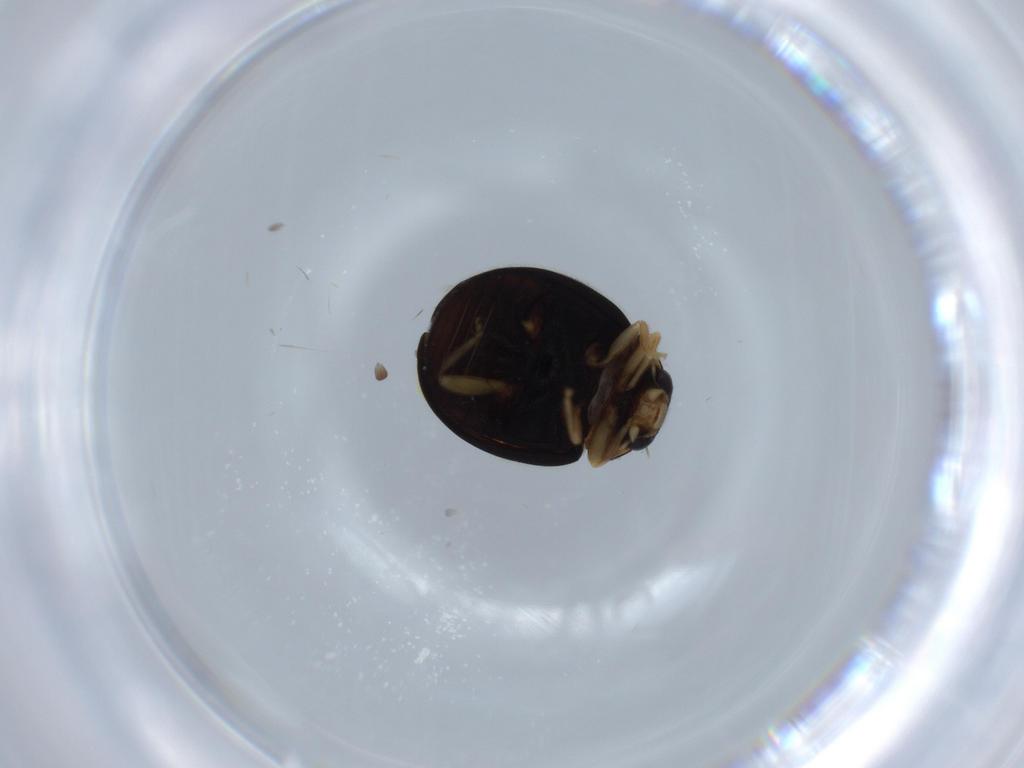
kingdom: Animalia
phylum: Arthropoda
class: Insecta
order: Coleoptera
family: Coccinellidae
